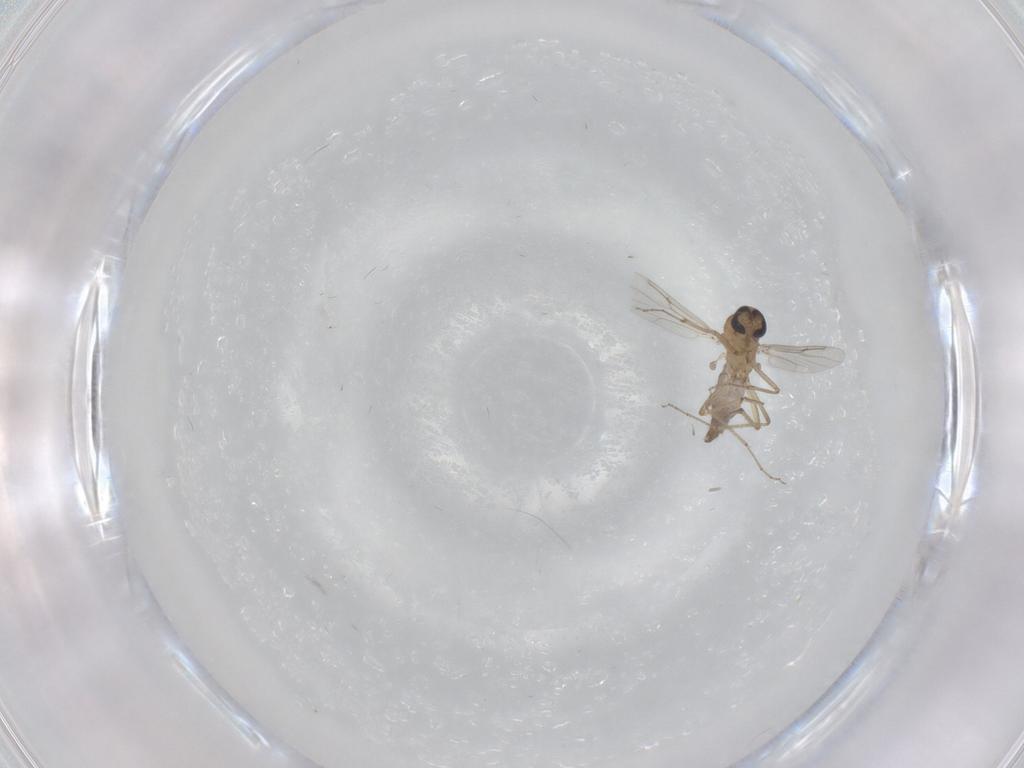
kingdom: Animalia
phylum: Arthropoda
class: Insecta
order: Diptera
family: Ceratopogonidae
